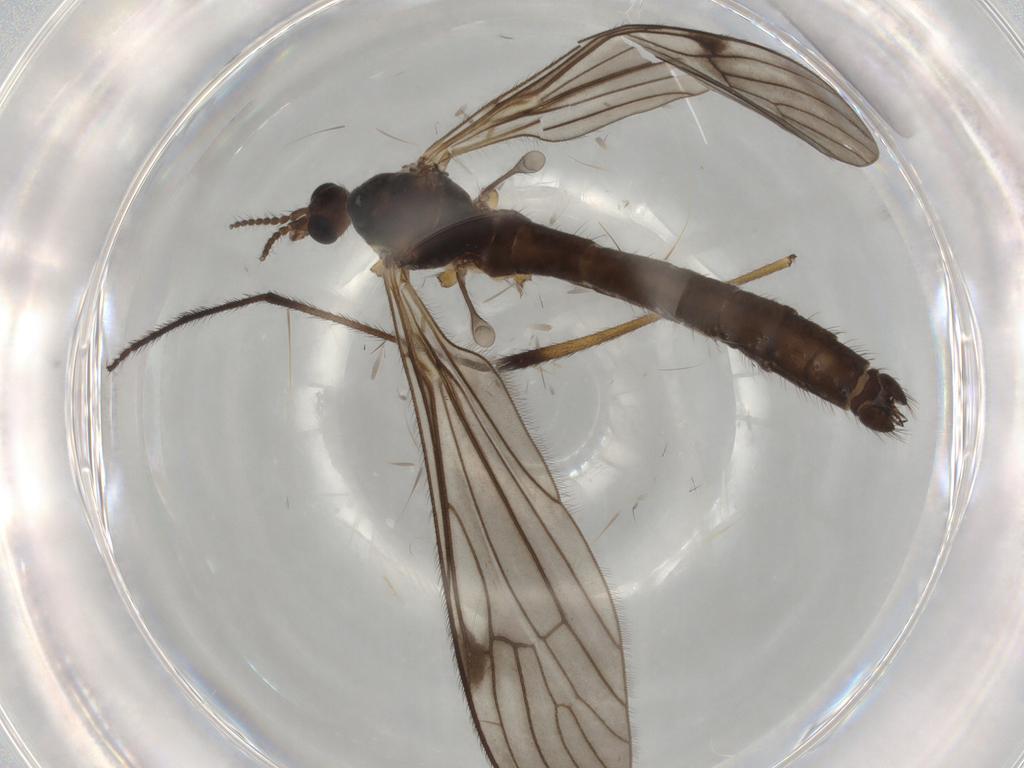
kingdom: Animalia
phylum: Arthropoda
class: Insecta
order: Diptera
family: Limoniidae
